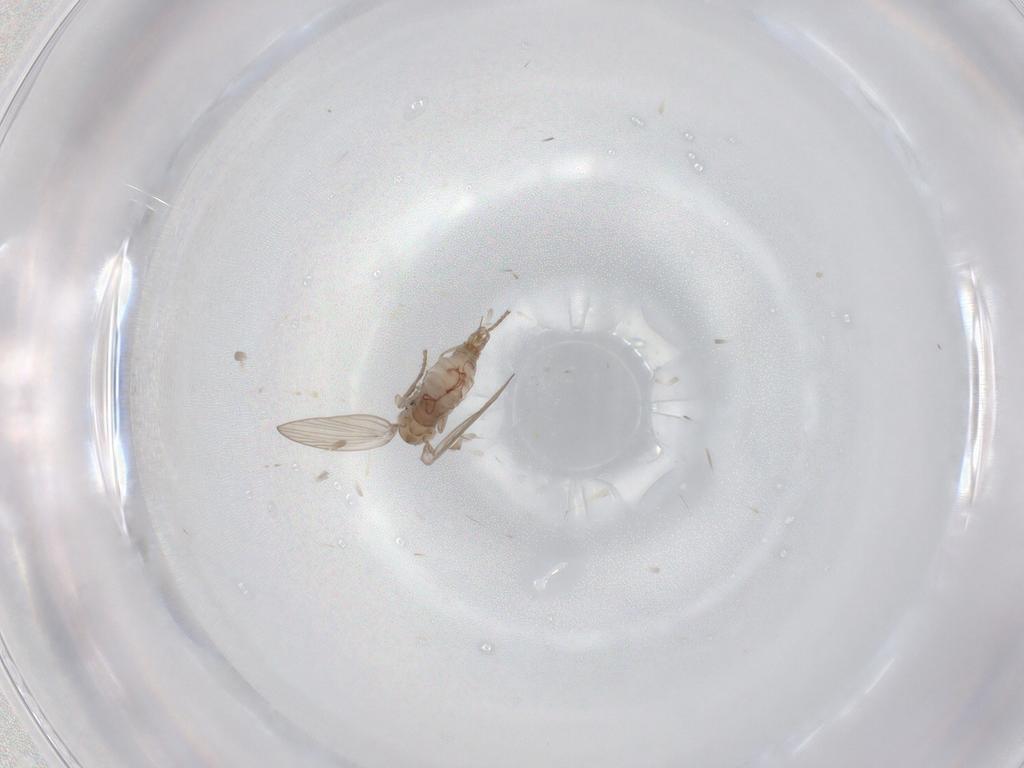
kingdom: Animalia
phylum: Arthropoda
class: Insecta
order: Diptera
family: Psychodidae
